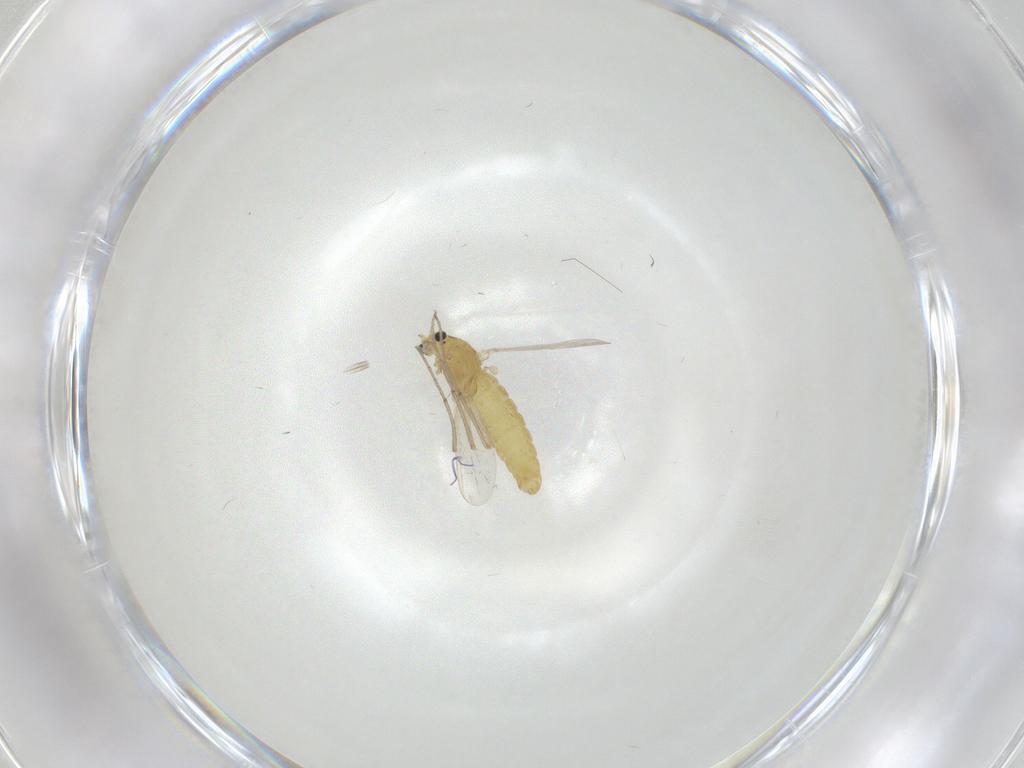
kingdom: Animalia
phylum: Arthropoda
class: Insecta
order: Diptera
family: Chironomidae
